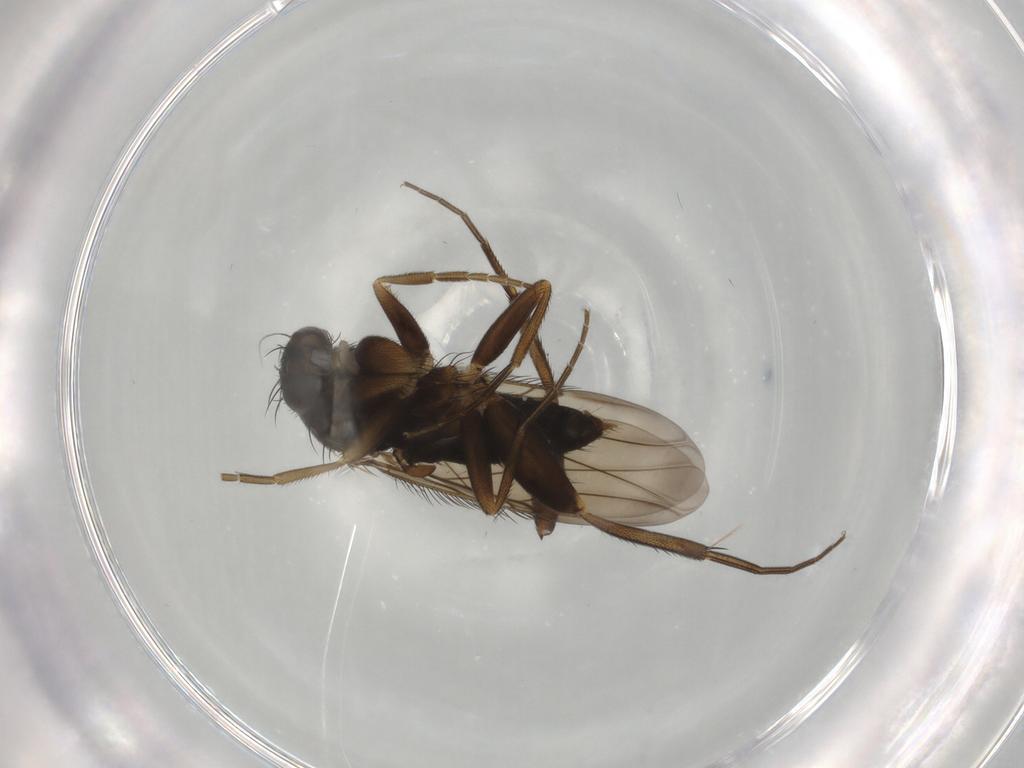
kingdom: Animalia
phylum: Arthropoda
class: Insecta
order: Diptera
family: Phoridae
